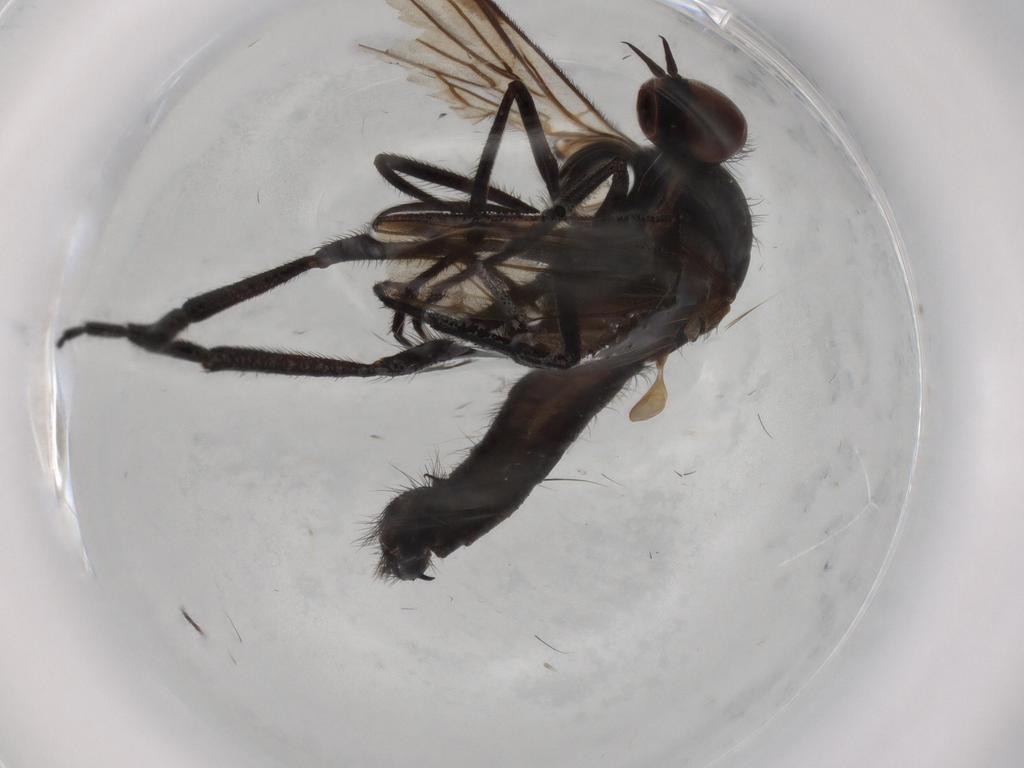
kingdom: Animalia
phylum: Arthropoda
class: Insecta
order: Diptera
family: Empididae
